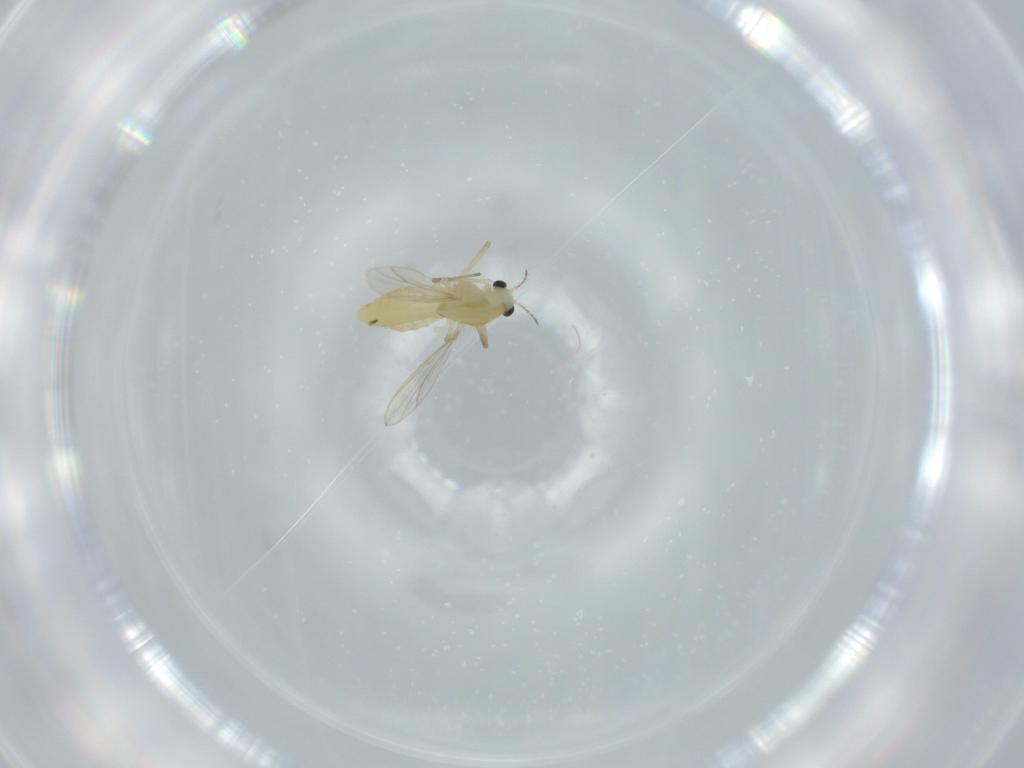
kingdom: Animalia
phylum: Arthropoda
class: Insecta
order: Diptera
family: Chironomidae
